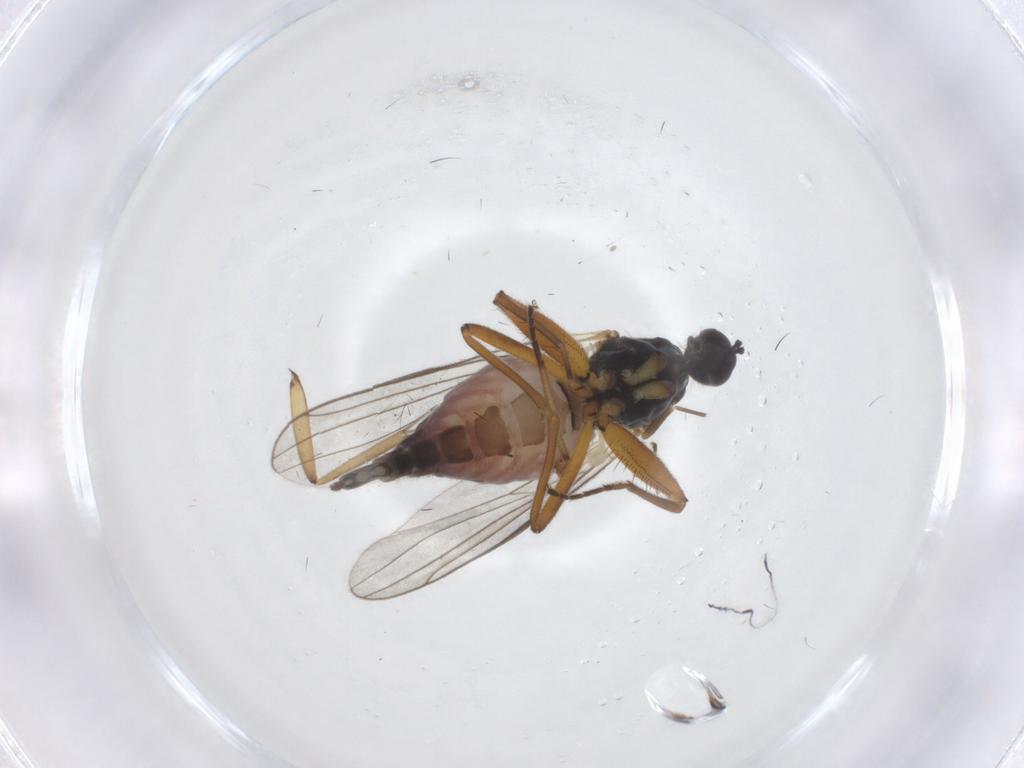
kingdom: Animalia
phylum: Arthropoda
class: Insecta
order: Diptera
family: Hybotidae
